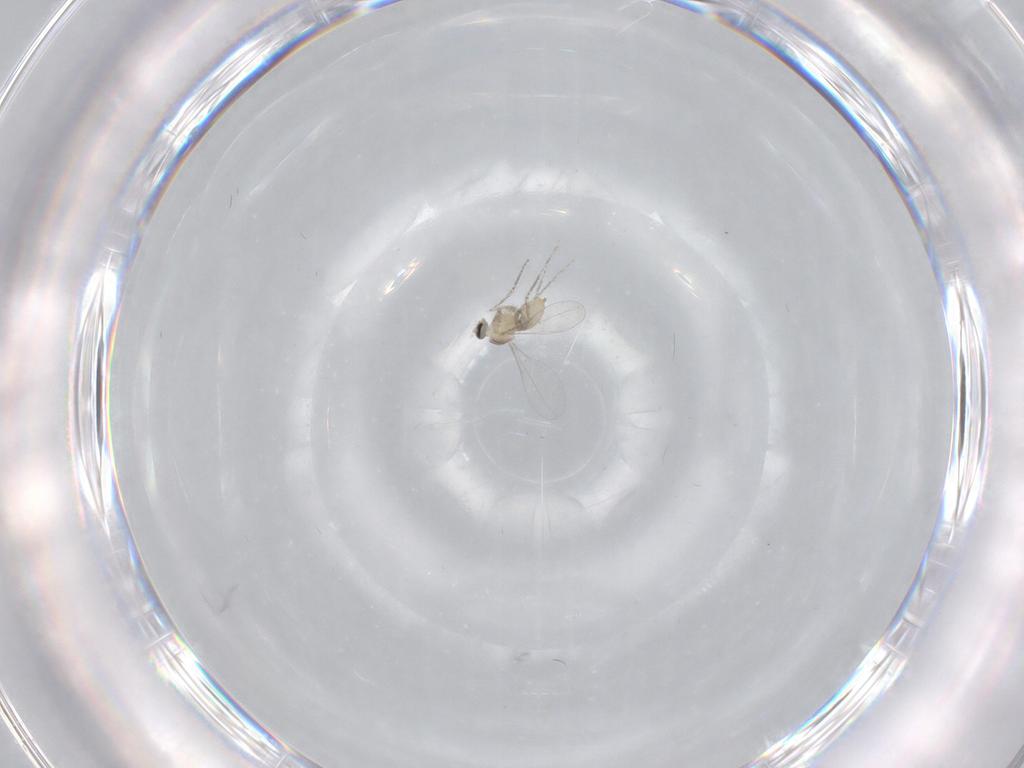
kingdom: Animalia
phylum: Arthropoda
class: Insecta
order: Diptera
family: Cecidomyiidae
